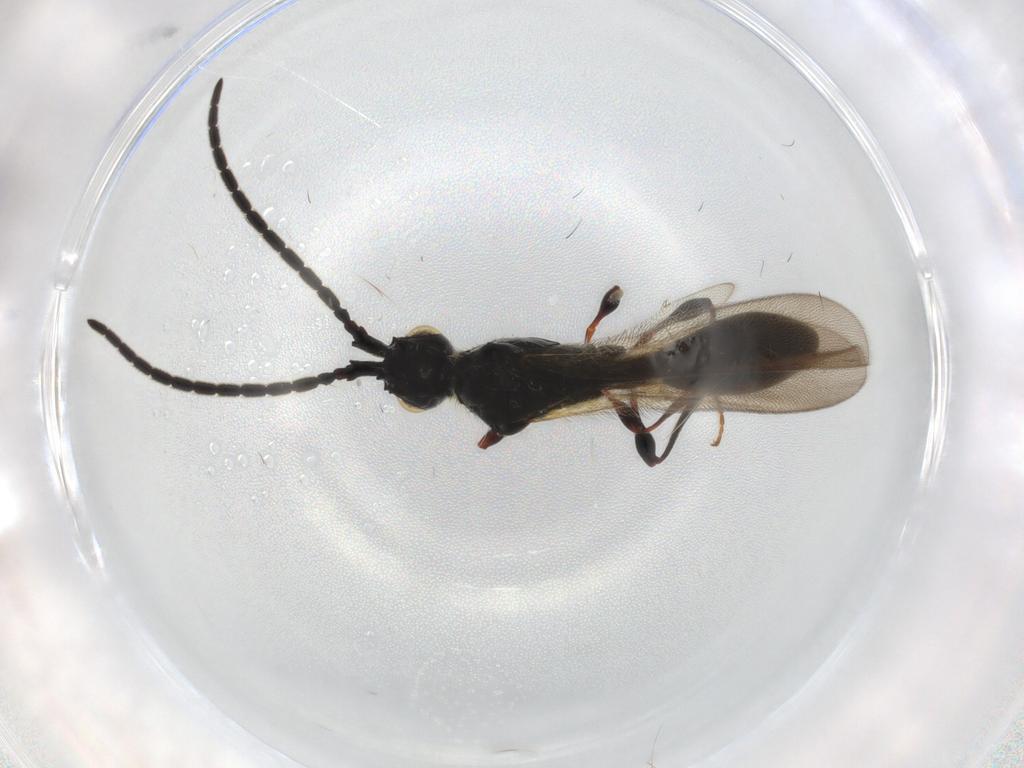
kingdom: Animalia
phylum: Arthropoda
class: Insecta
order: Hymenoptera
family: Diapriidae
